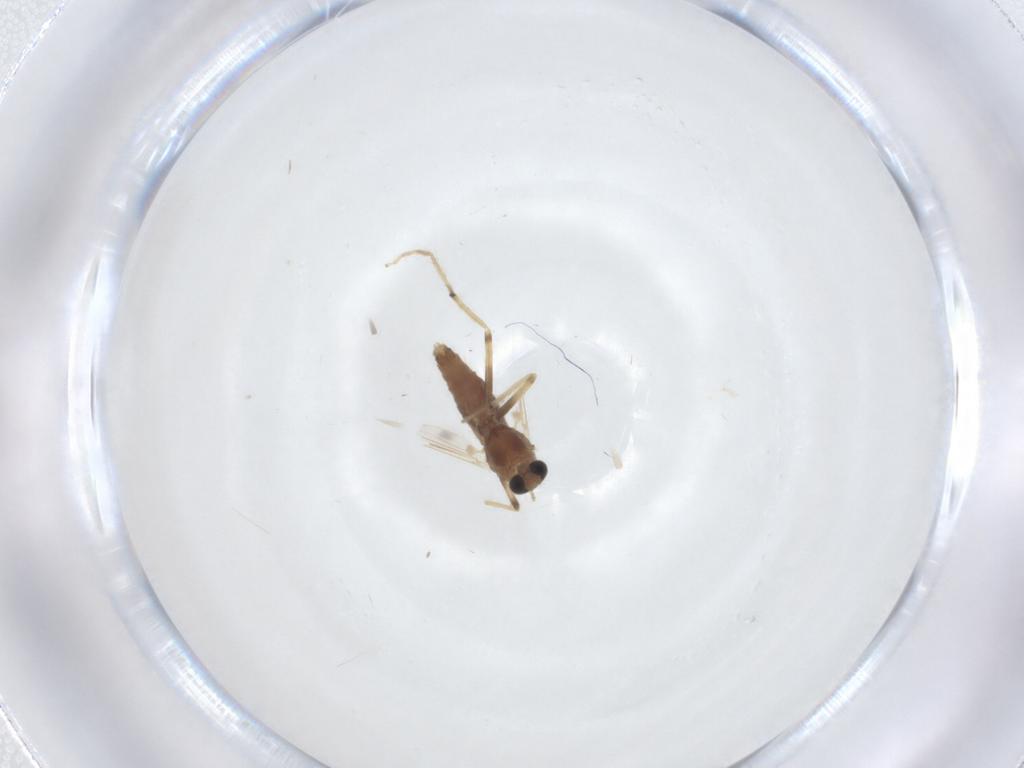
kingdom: Animalia
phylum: Arthropoda
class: Insecta
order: Diptera
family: Chironomidae
